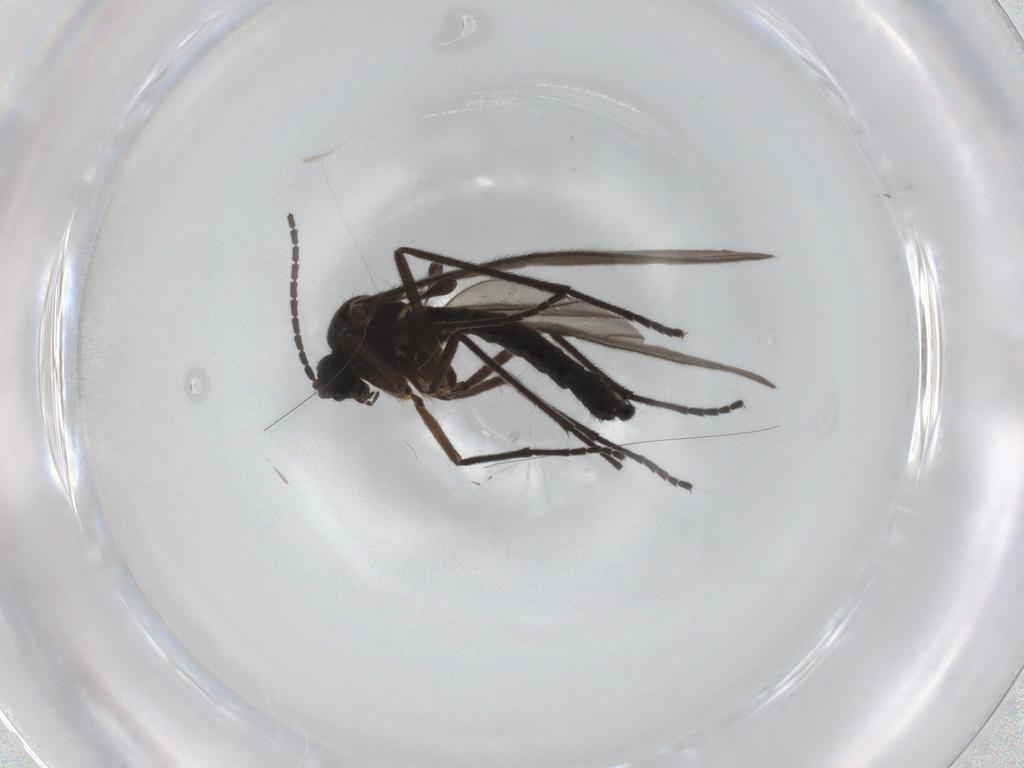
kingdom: Animalia
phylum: Arthropoda
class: Insecta
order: Diptera
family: Sciaridae
